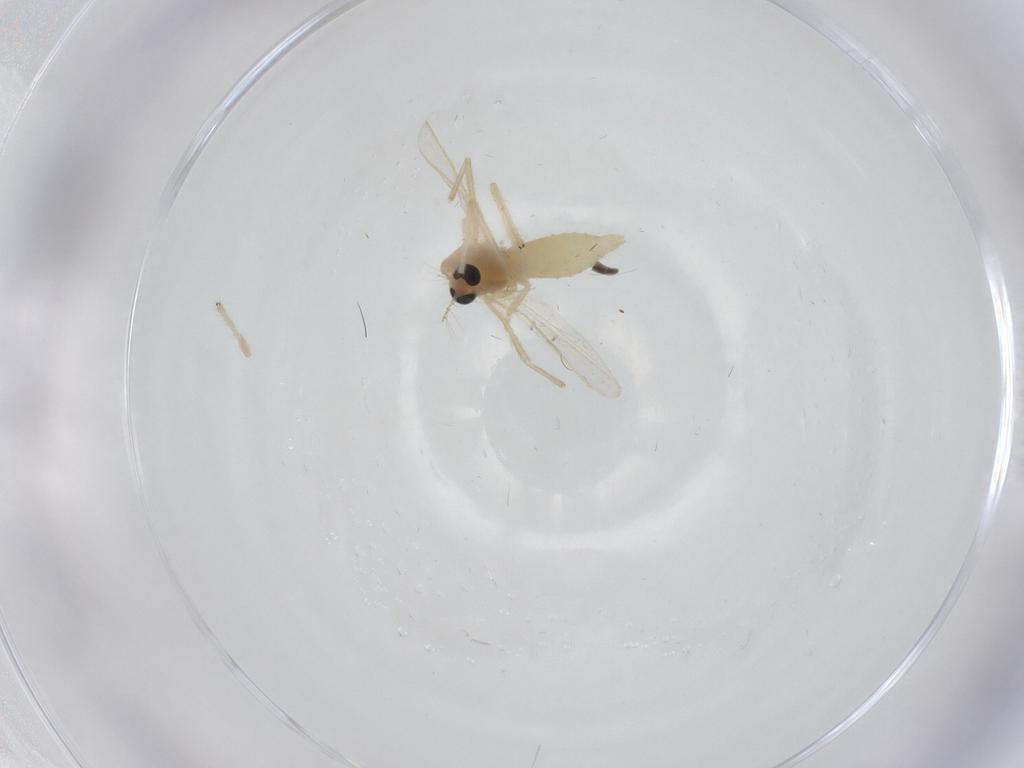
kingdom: Animalia
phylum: Arthropoda
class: Insecta
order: Diptera
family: Chironomidae
